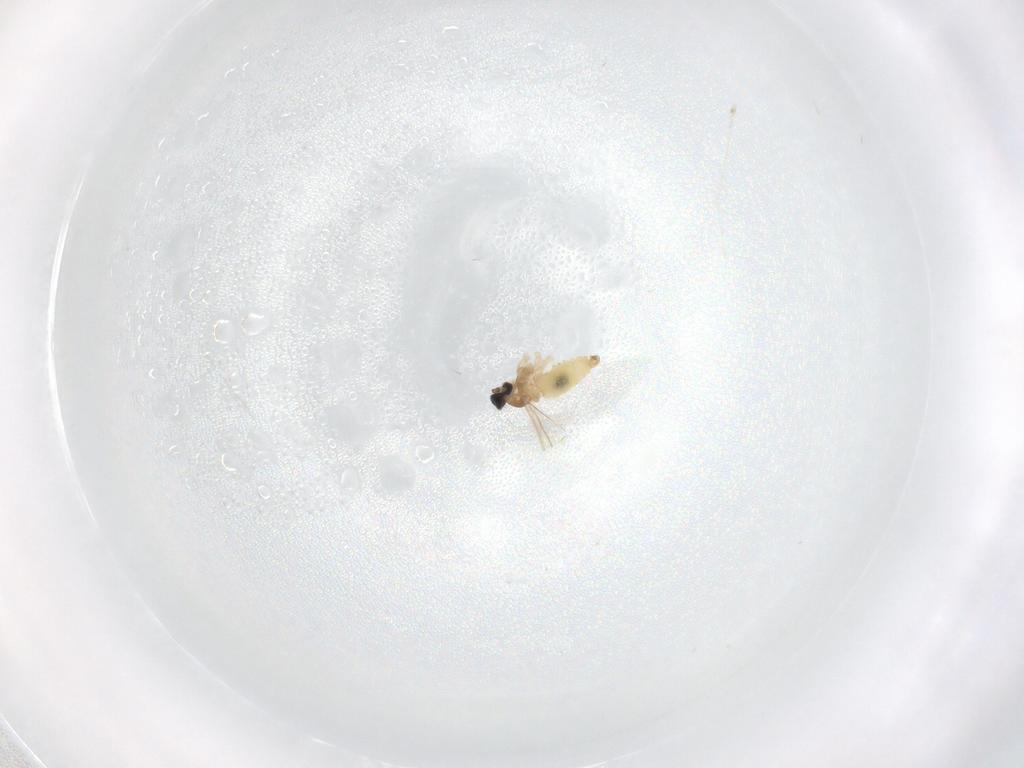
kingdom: Animalia
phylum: Arthropoda
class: Insecta
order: Diptera
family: Cecidomyiidae
